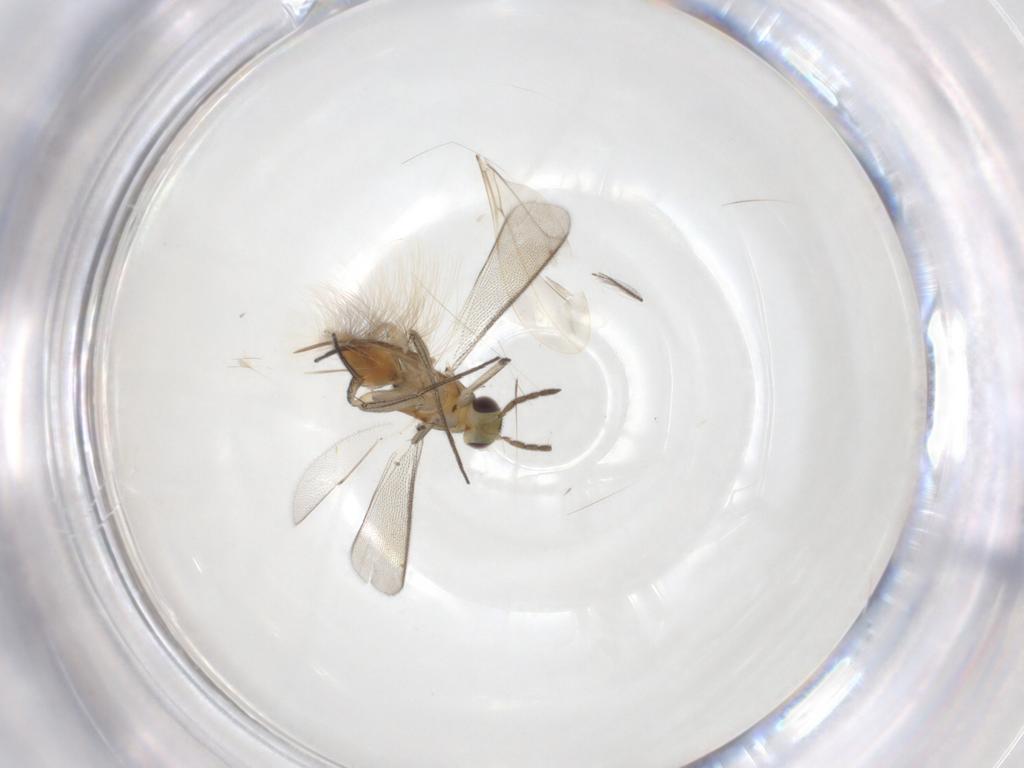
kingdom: Animalia
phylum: Arthropoda
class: Insecta
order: Hymenoptera
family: Eulophidae
